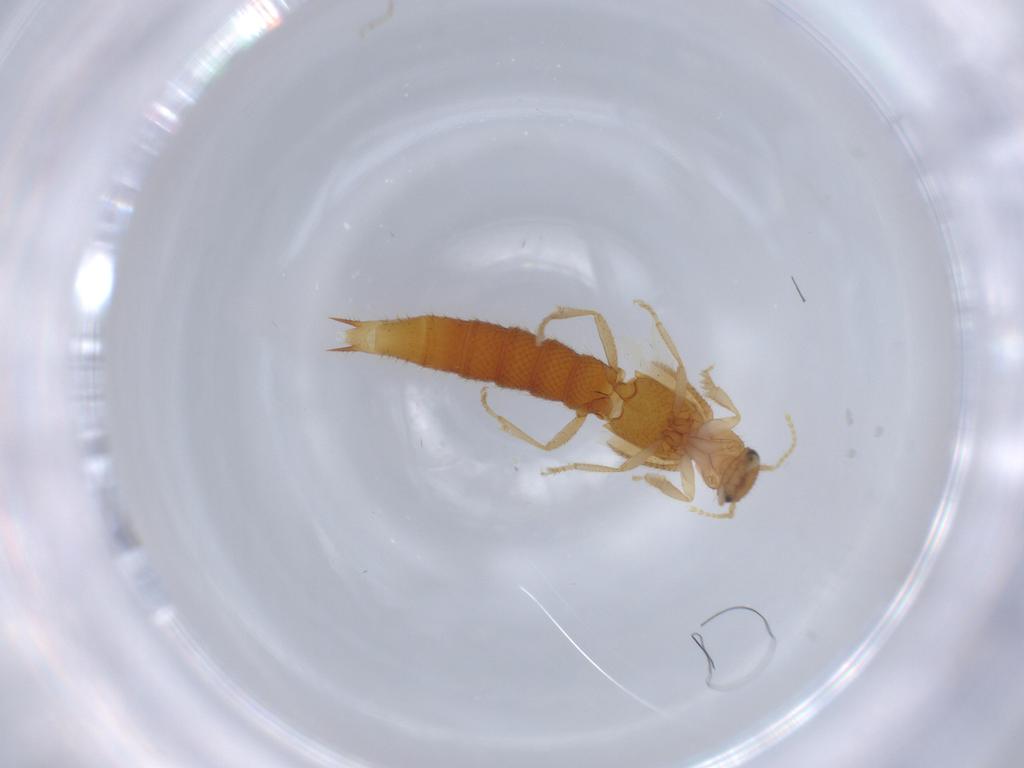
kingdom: Animalia
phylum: Arthropoda
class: Insecta
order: Coleoptera
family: Staphylinidae
